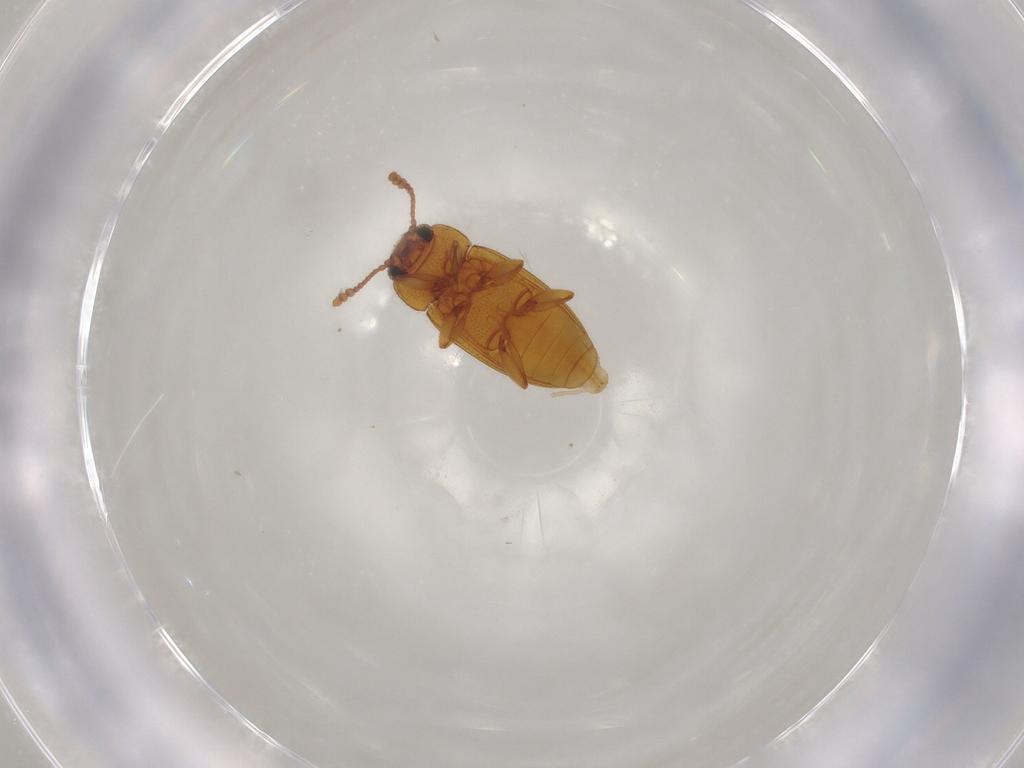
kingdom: Animalia
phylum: Arthropoda
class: Insecta
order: Coleoptera
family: Erotylidae
